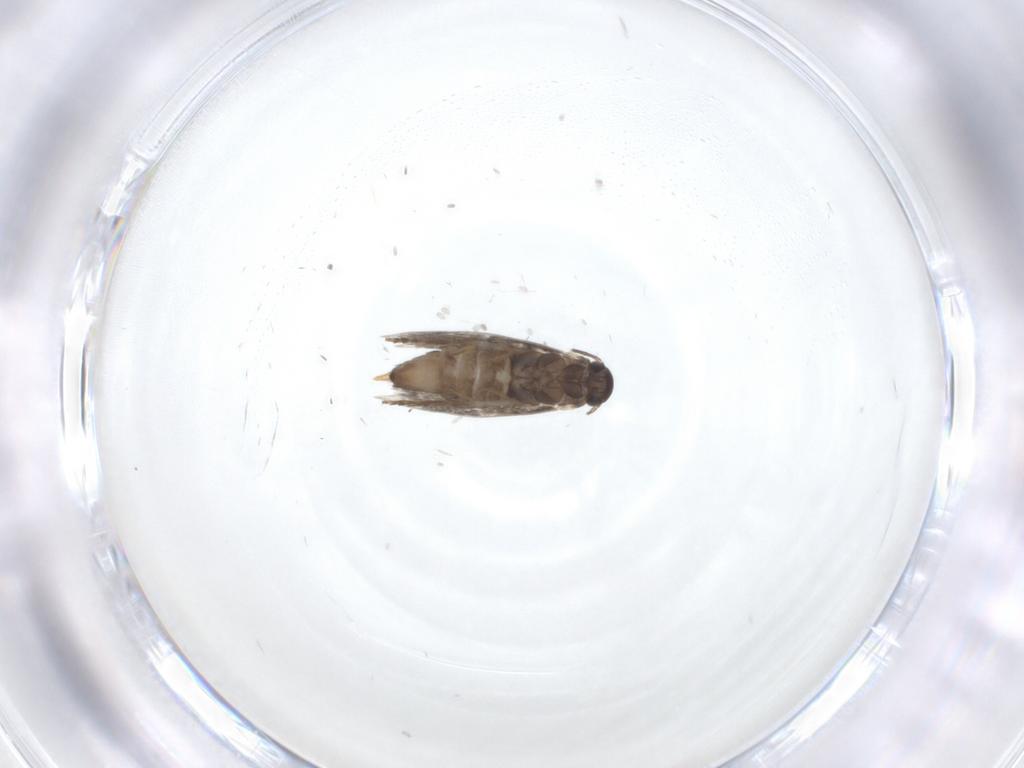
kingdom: Animalia
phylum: Arthropoda
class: Insecta
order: Lepidoptera
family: Heliozelidae
